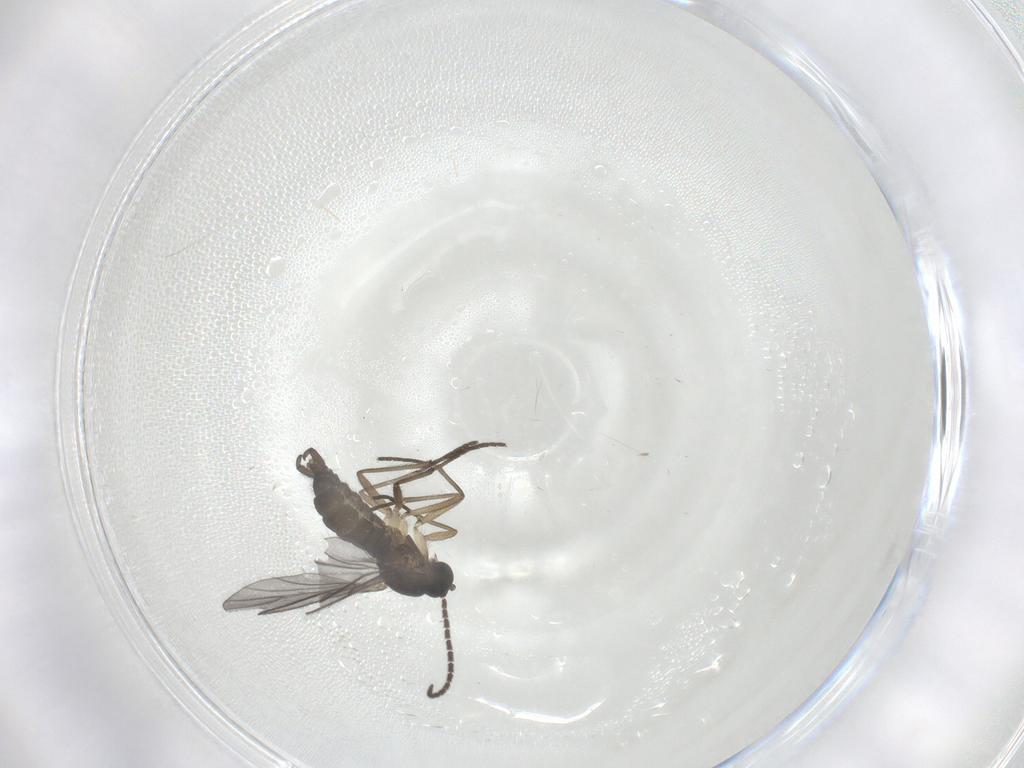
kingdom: Animalia
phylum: Arthropoda
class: Insecta
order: Diptera
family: Sciaridae
